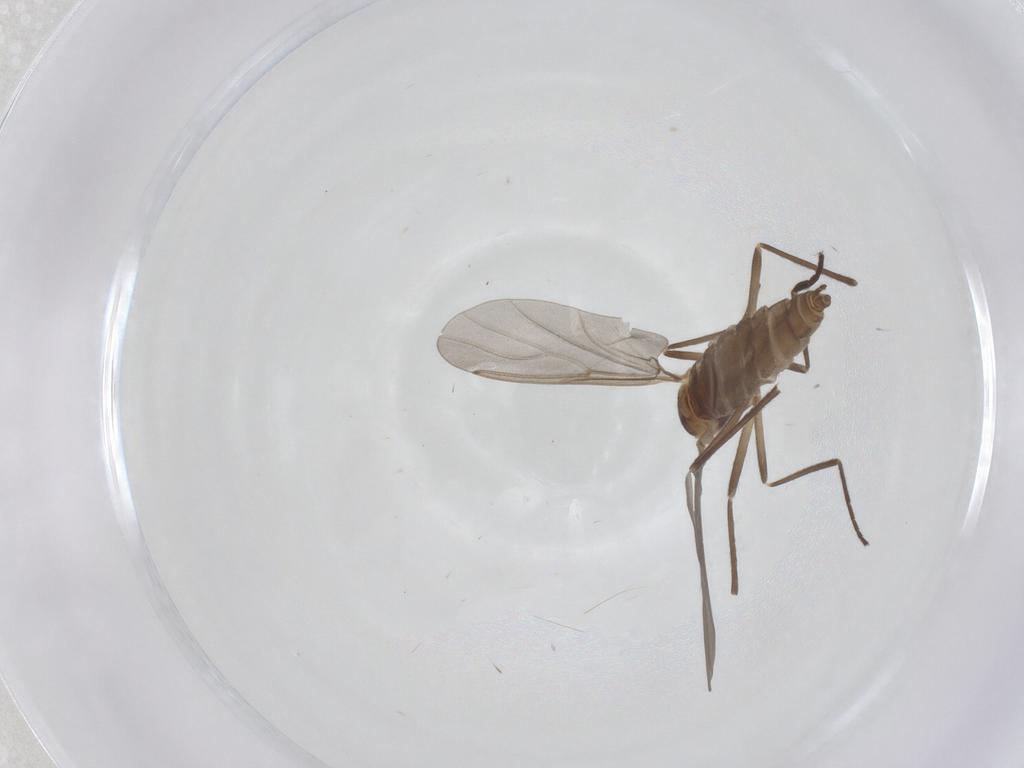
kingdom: Animalia
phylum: Arthropoda
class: Insecta
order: Diptera
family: Cecidomyiidae
